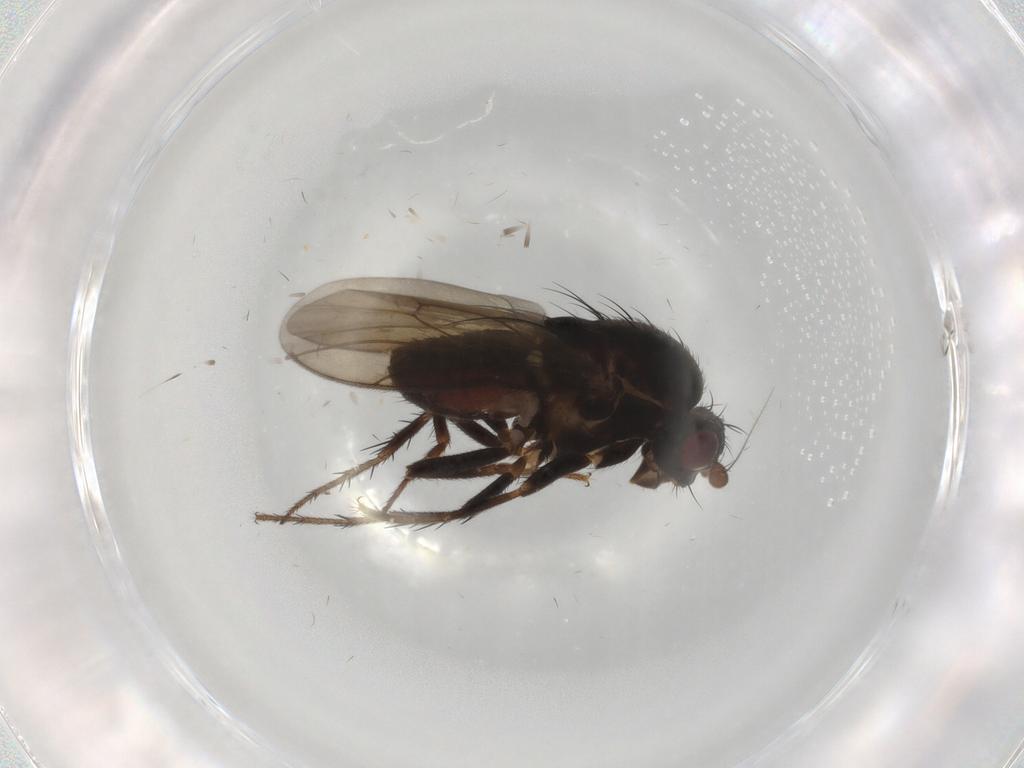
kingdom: Animalia
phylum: Arthropoda
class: Insecta
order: Diptera
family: Sphaeroceridae
